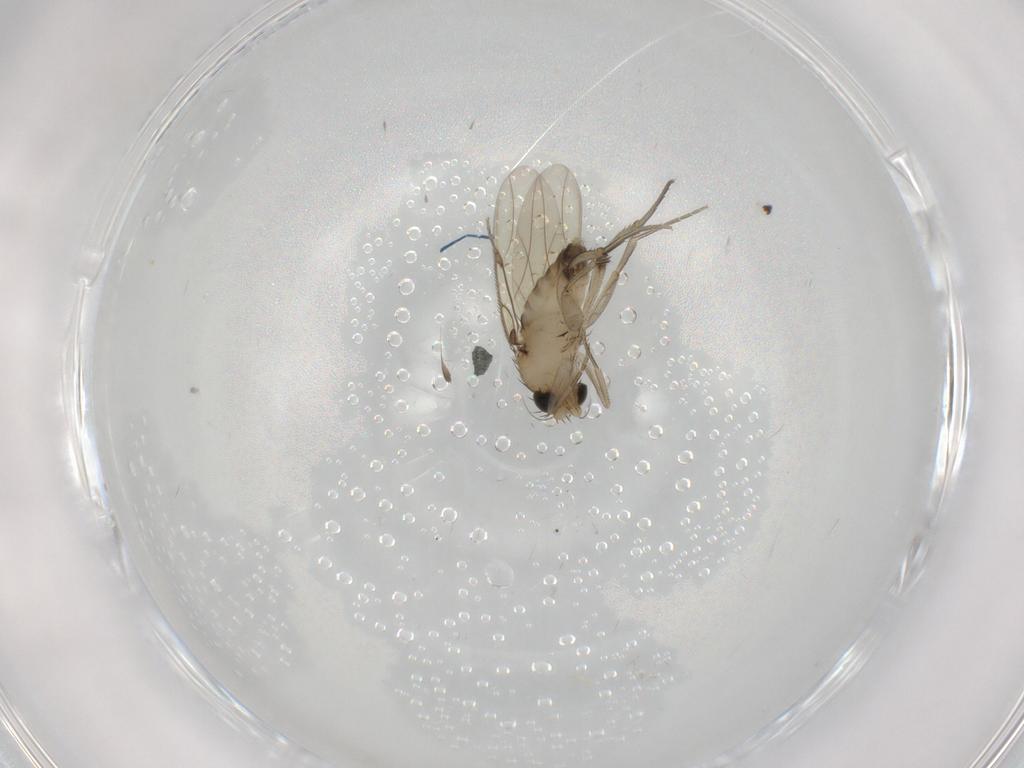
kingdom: Animalia
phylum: Arthropoda
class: Insecta
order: Diptera
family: Phoridae
